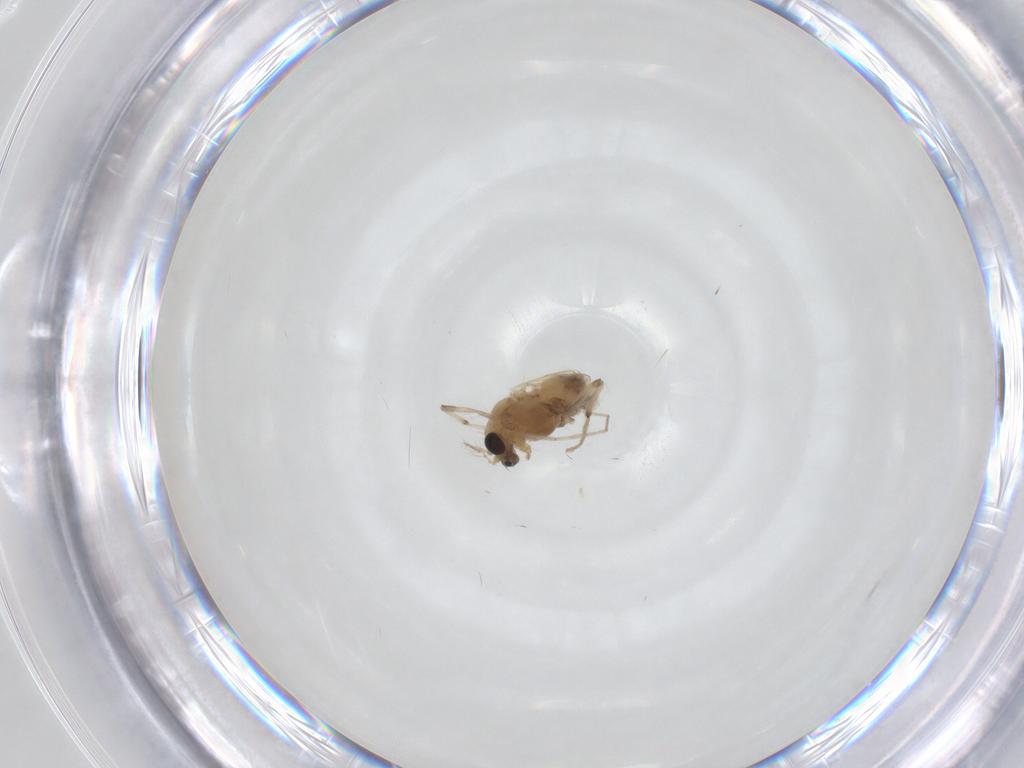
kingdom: Animalia
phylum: Arthropoda
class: Insecta
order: Diptera
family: Chironomidae
